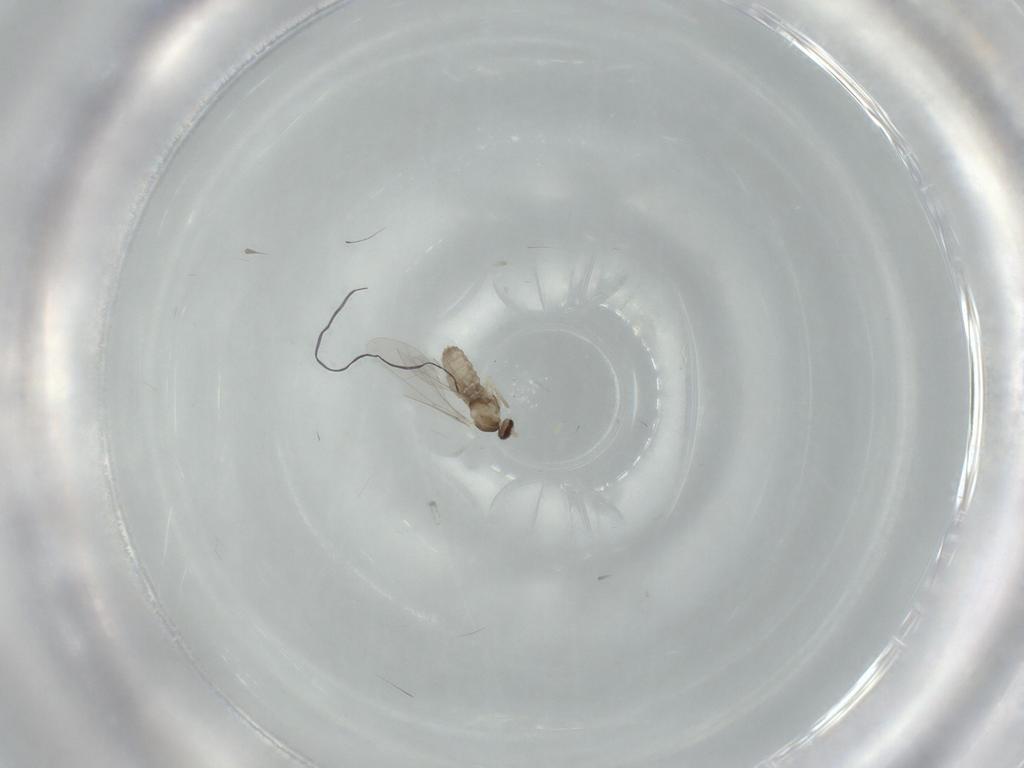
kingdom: Animalia
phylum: Arthropoda
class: Insecta
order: Diptera
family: Cecidomyiidae
